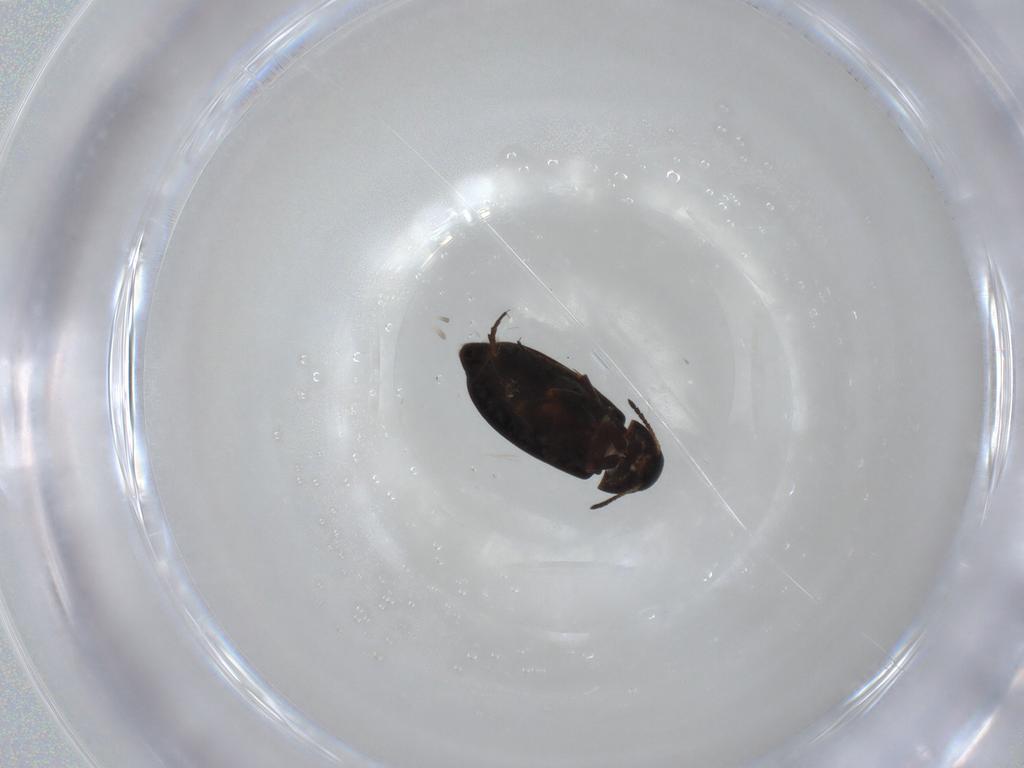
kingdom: Animalia
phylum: Arthropoda
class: Insecta
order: Coleoptera
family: Scraptiidae
